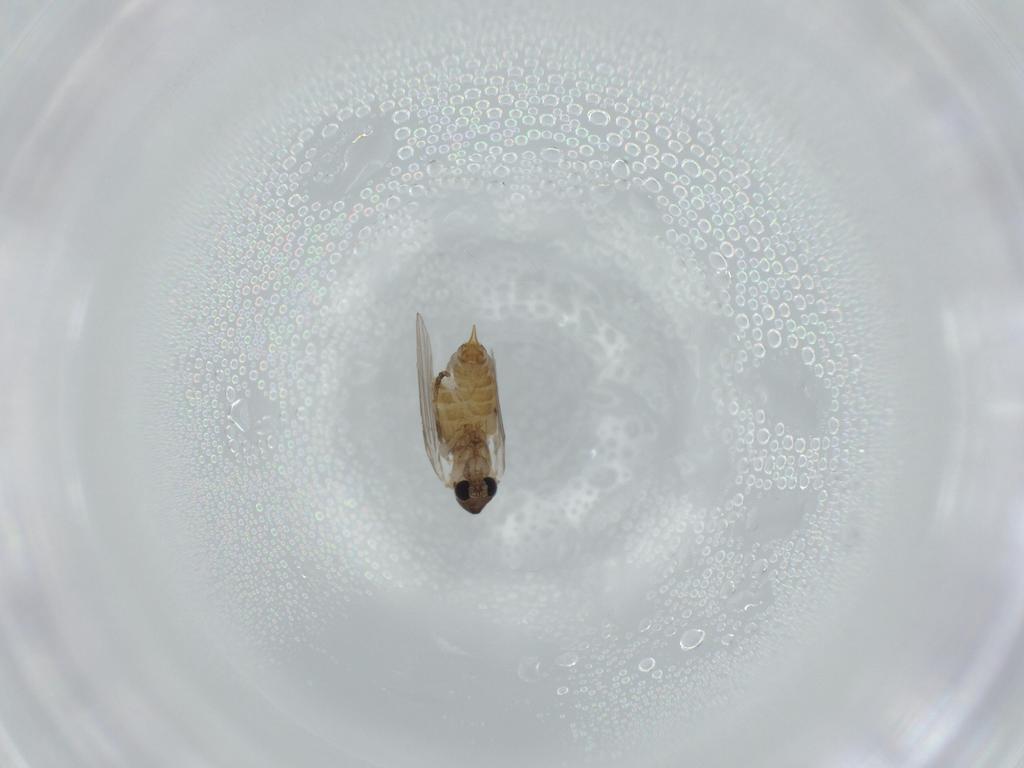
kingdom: Animalia
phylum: Arthropoda
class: Insecta
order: Diptera
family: Psychodidae
